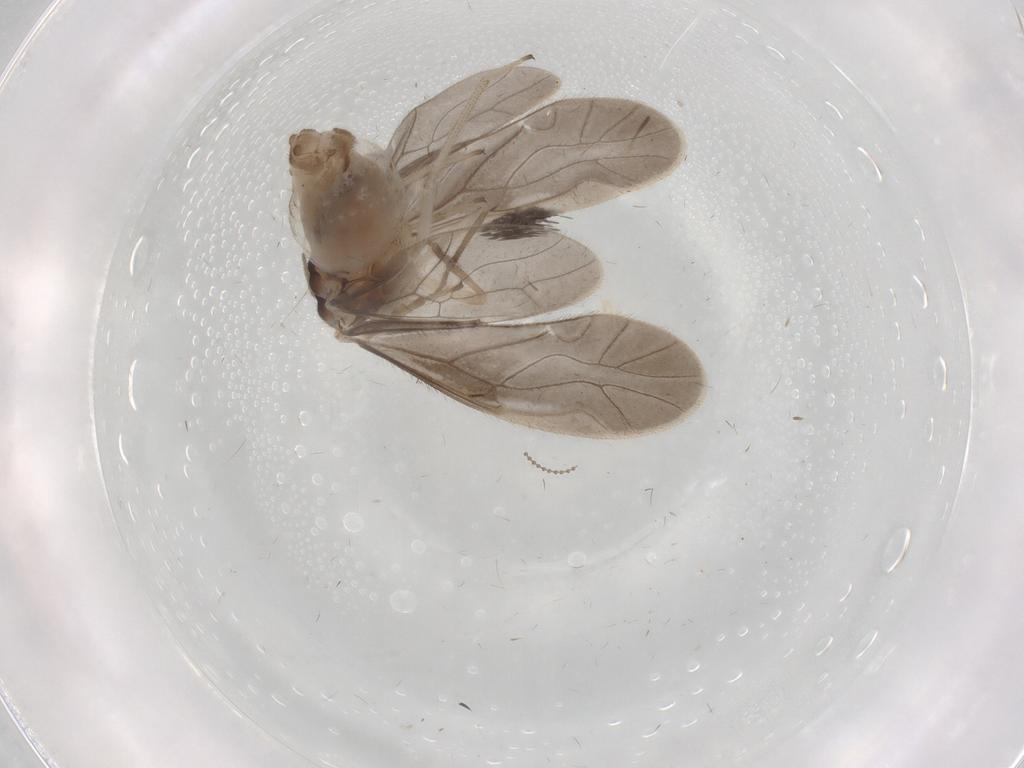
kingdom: Animalia
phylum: Arthropoda
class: Insecta
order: Psocodea
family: Caeciliusidae
